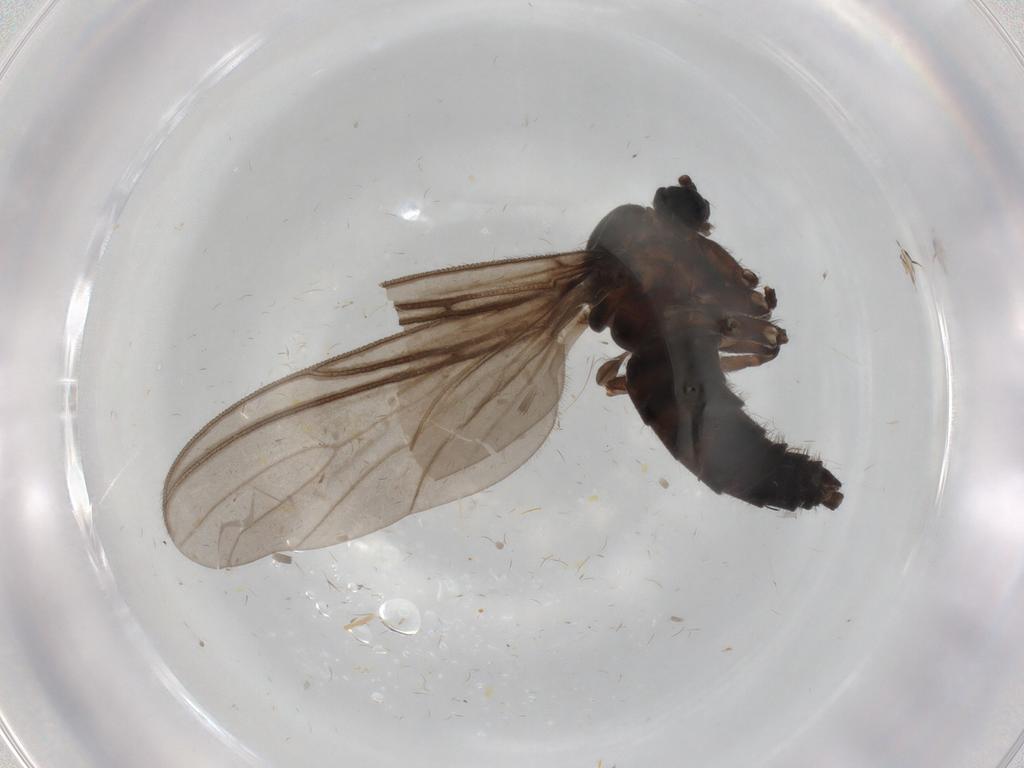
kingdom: Animalia
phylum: Arthropoda
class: Insecta
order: Diptera
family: Sciaridae
